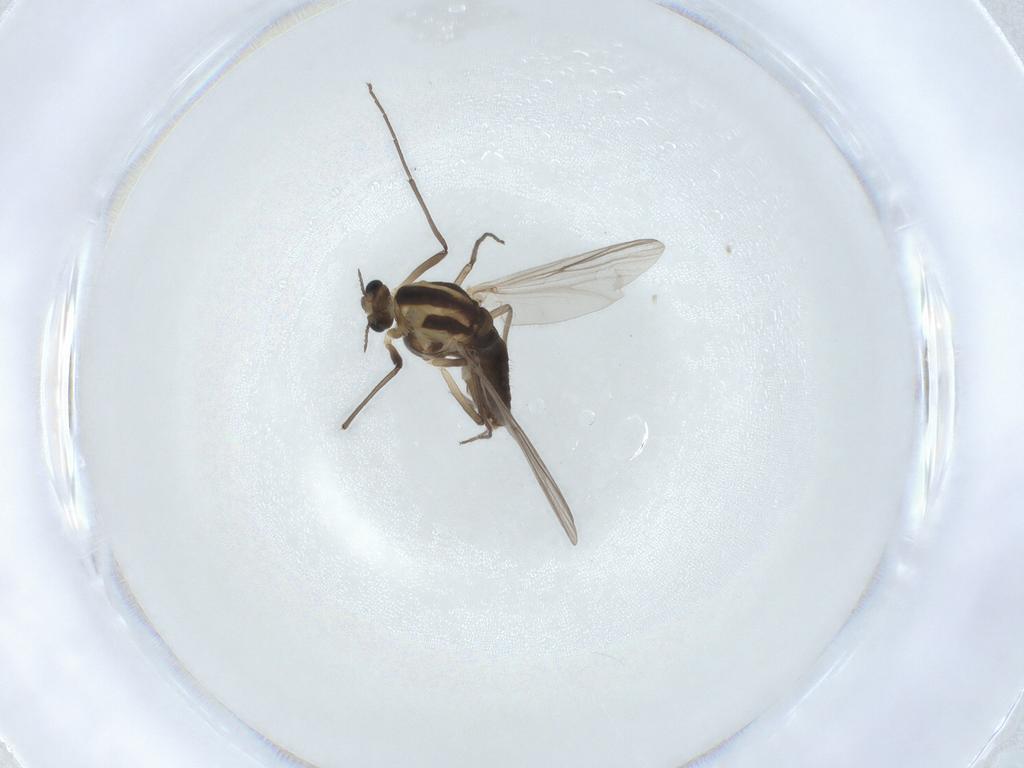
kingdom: Animalia
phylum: Arthropoda
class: Insecta
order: Diptera
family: Chironomidae
